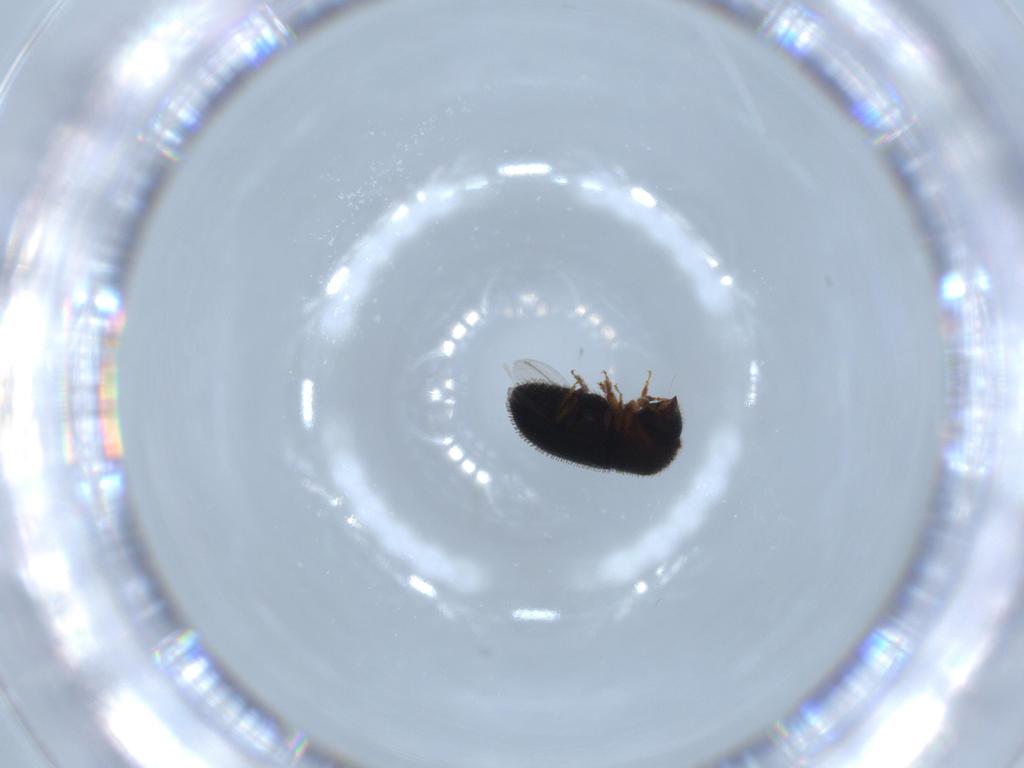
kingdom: Animalia
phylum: Arthropoda
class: Insecta
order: Coleoptera
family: Curculionidae
